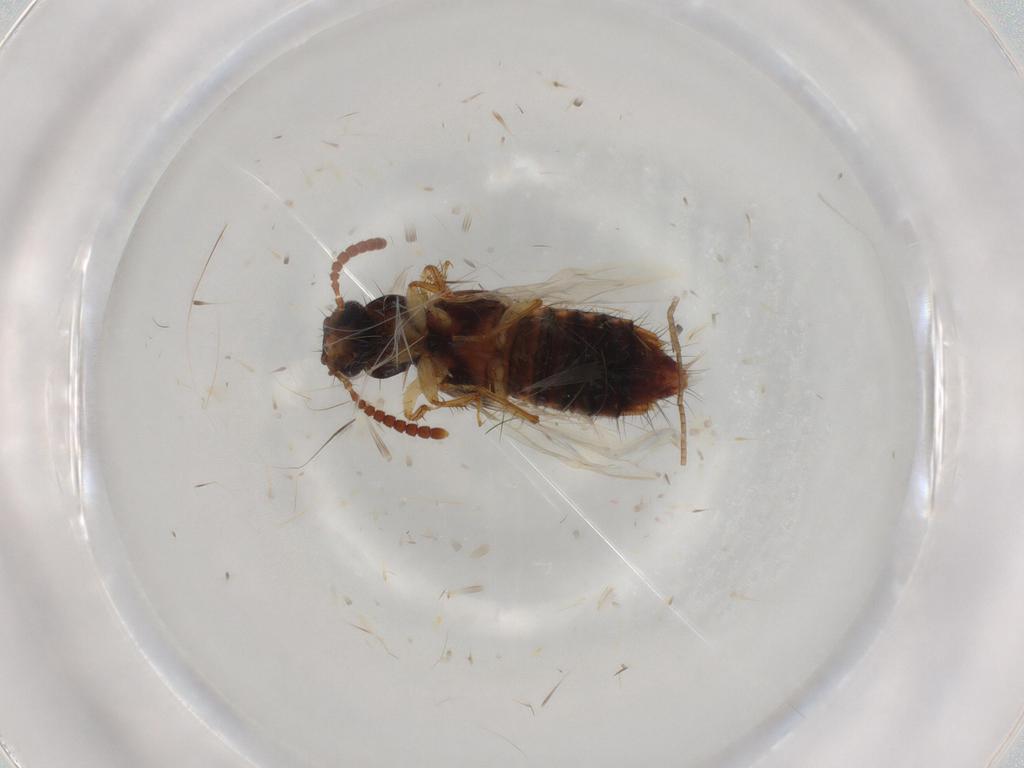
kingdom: Animalia
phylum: Arthropoda
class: Insecta
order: Coleoptera
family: Staphylinidae
